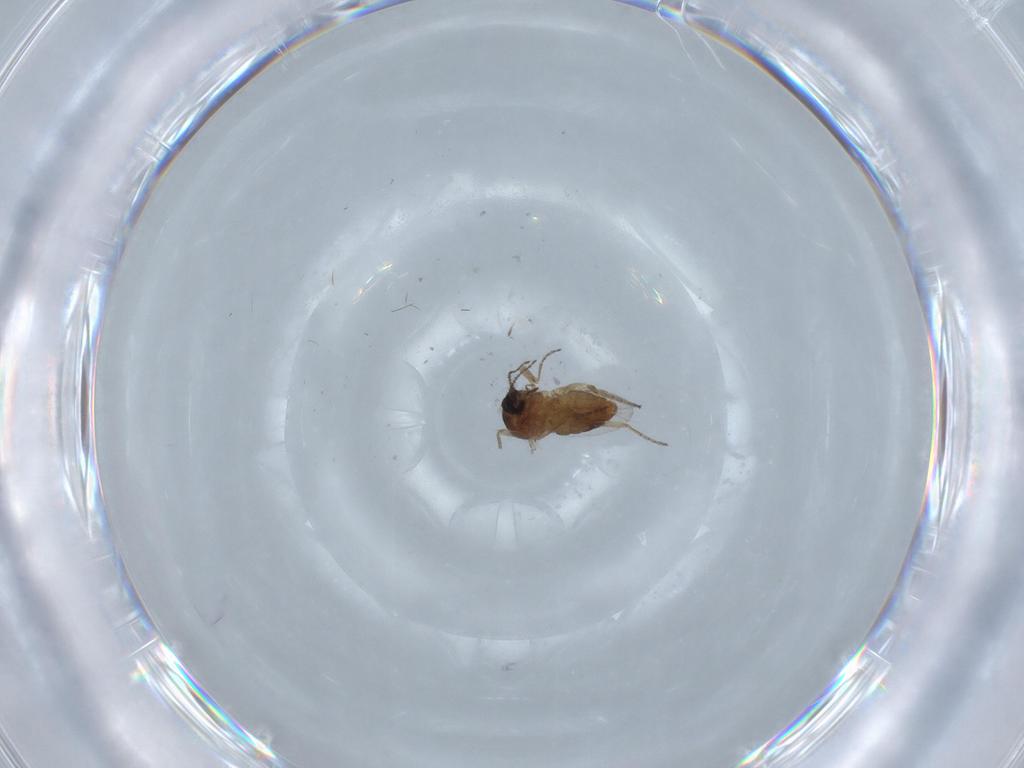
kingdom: Animalia
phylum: Arthropoda
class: Insecta
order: Diptera
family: Ceratopogonidae
